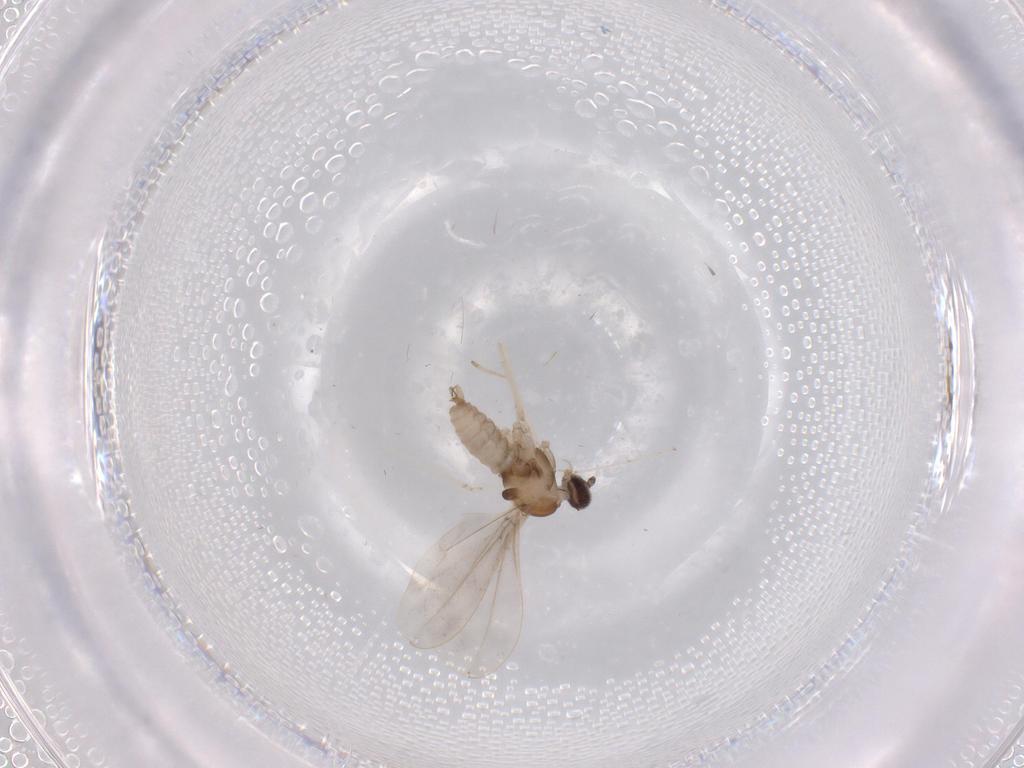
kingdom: Animalia
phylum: Arthropoda
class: Insecta
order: Diptera
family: Cecidomyiidae
